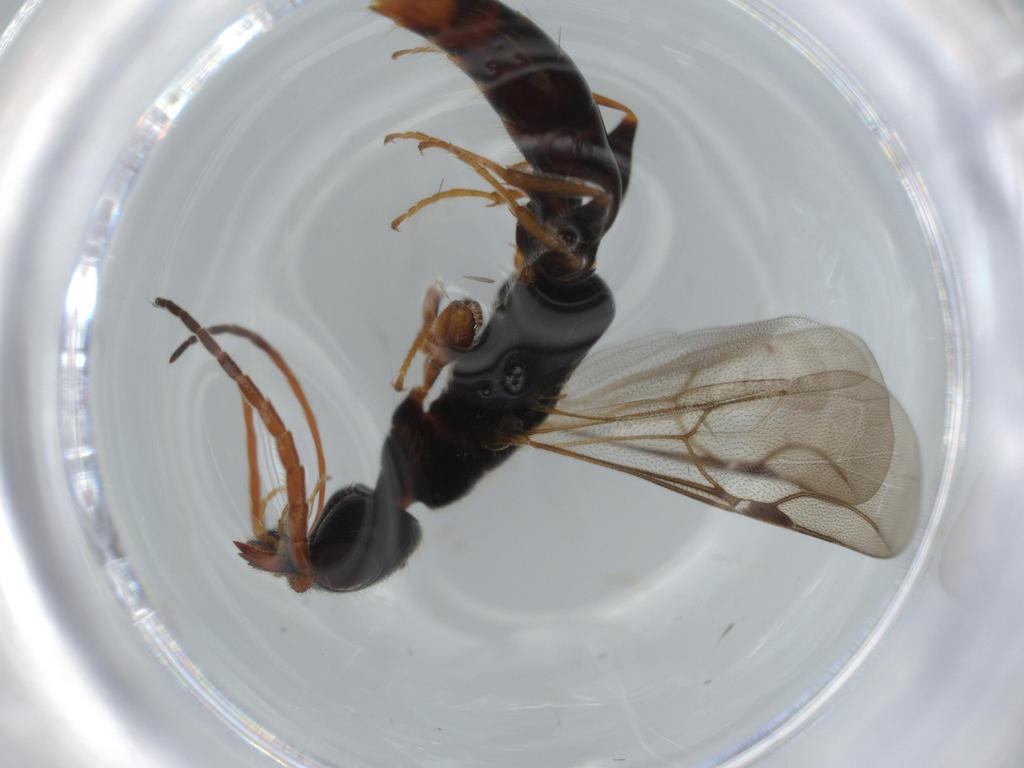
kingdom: Animalia
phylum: Arthropoda
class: Insecta
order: Hymenoptera
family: Bethylidae
